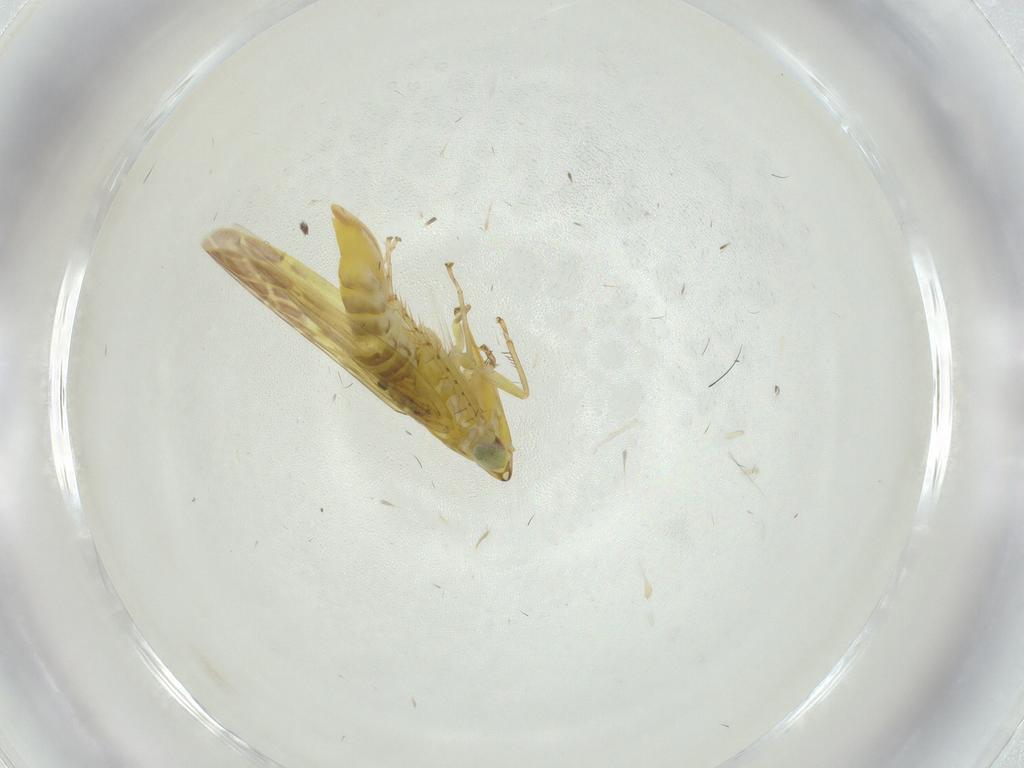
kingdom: Animalia
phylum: Arthropoda
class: Insecta
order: Hemiptera
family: Cicadellidae
